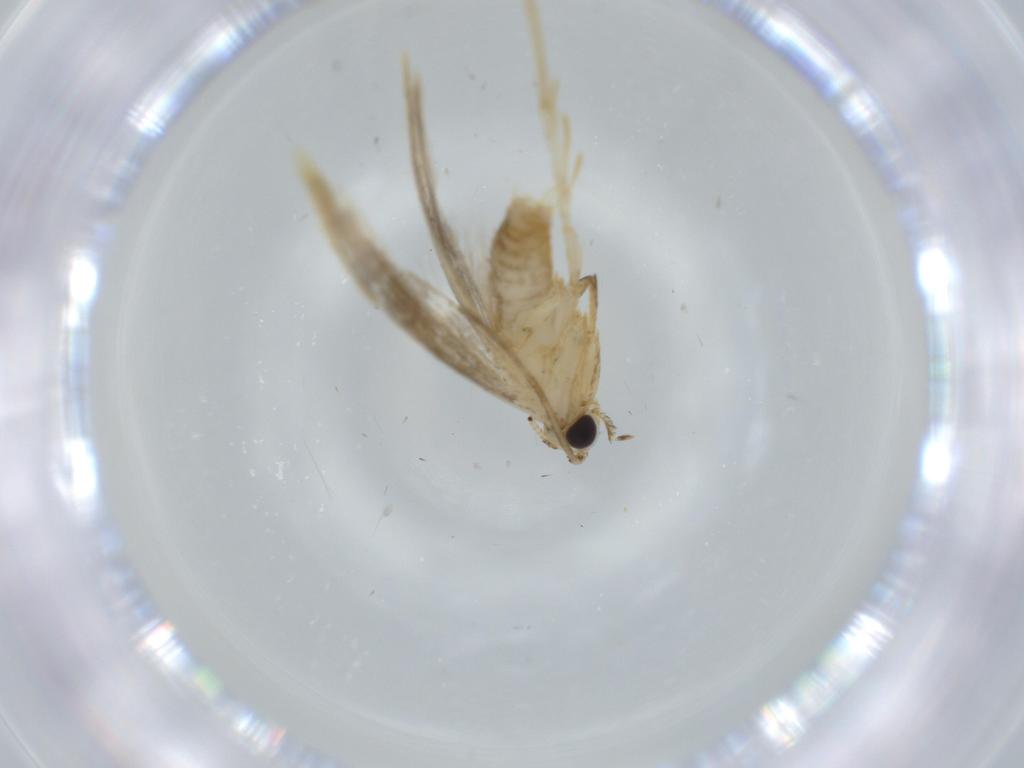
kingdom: Animalia
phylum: Arthropoda
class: Insecta
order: Lepidoptera
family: Tineidae
